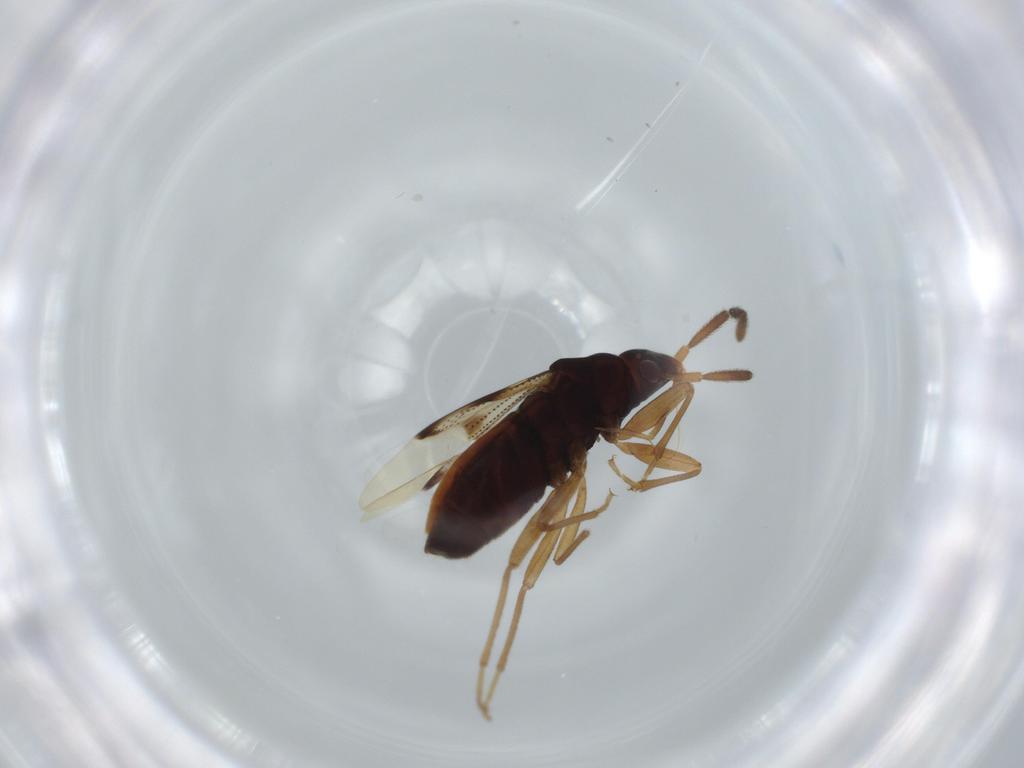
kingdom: Animalia
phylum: Arthropoda
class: Insecta
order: Hemiptera
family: Rhyparochromidae
